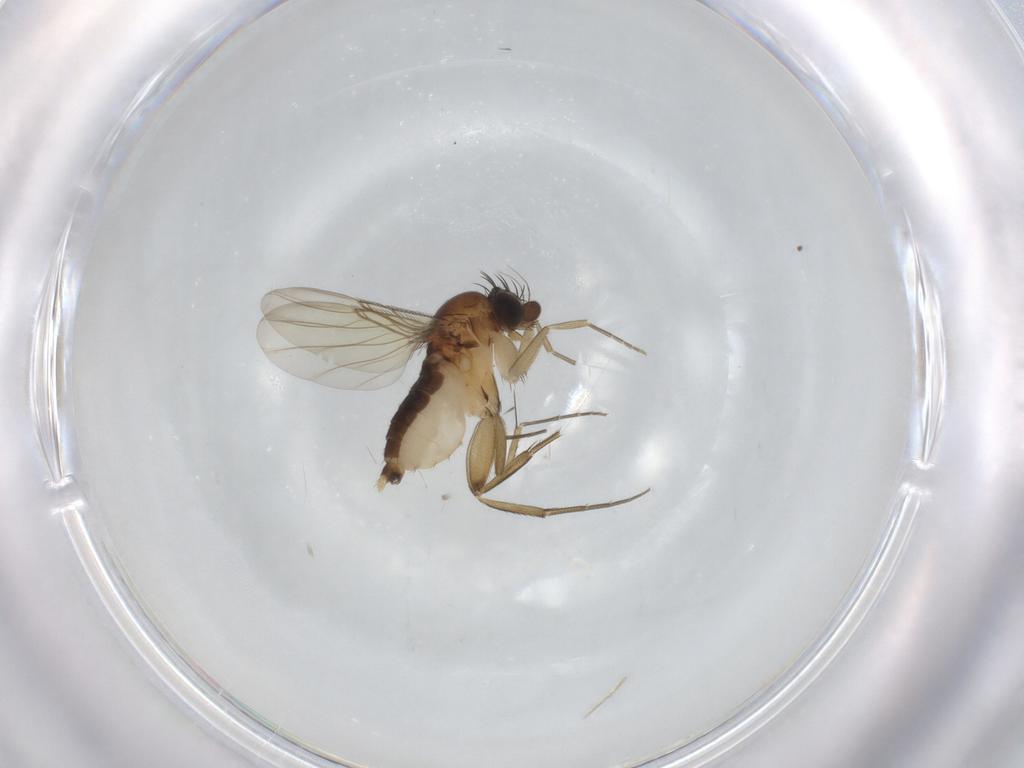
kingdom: Animalia
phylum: Arthropoda
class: Insecta
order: Diptera
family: Phoridae
